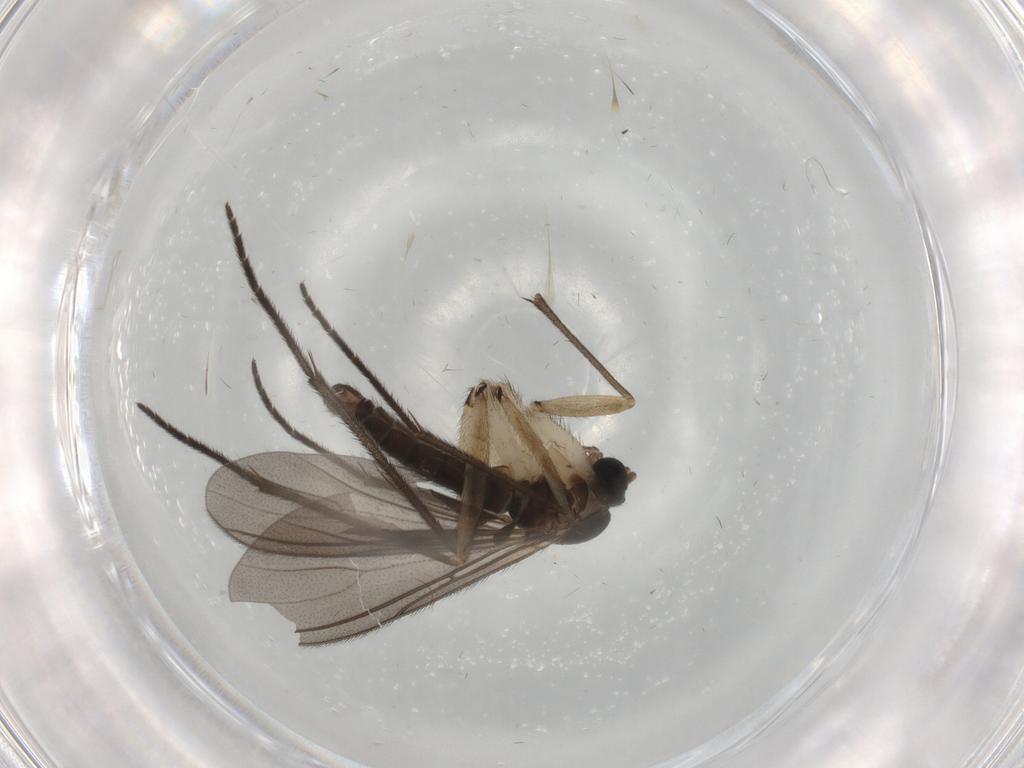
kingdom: Animalia
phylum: Arthropoda
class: Insecta
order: Diptera
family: Sciaridae
